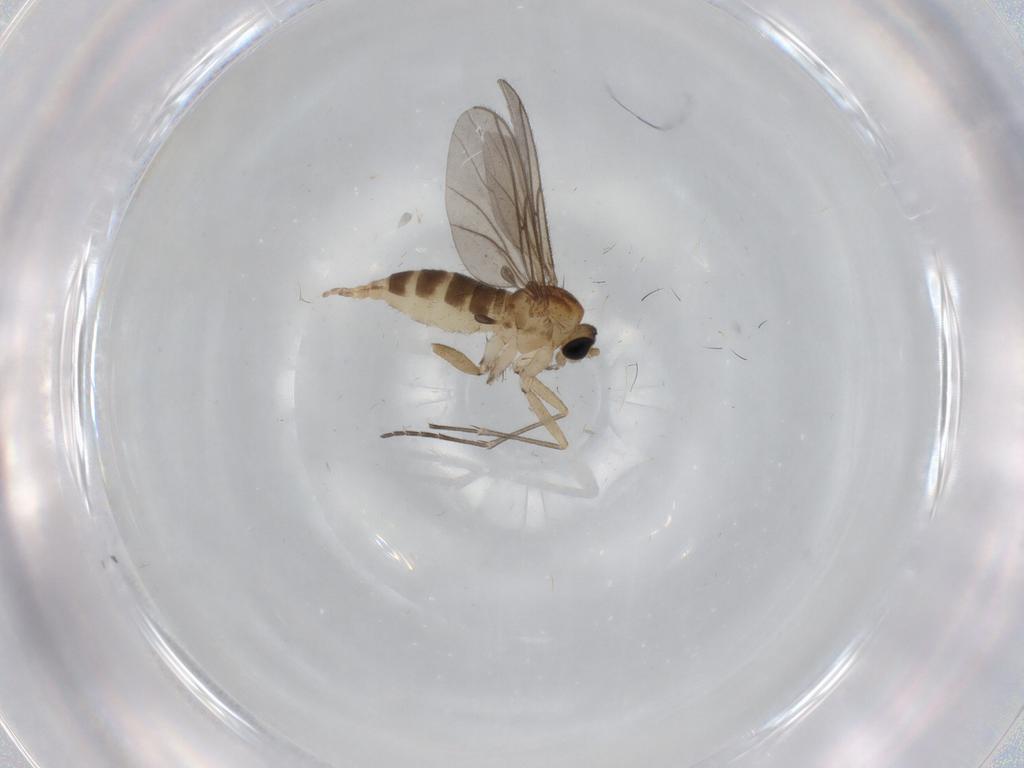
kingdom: Animalia
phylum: Arthropoda
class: Insecta
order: Diptera
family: Sciaridae
